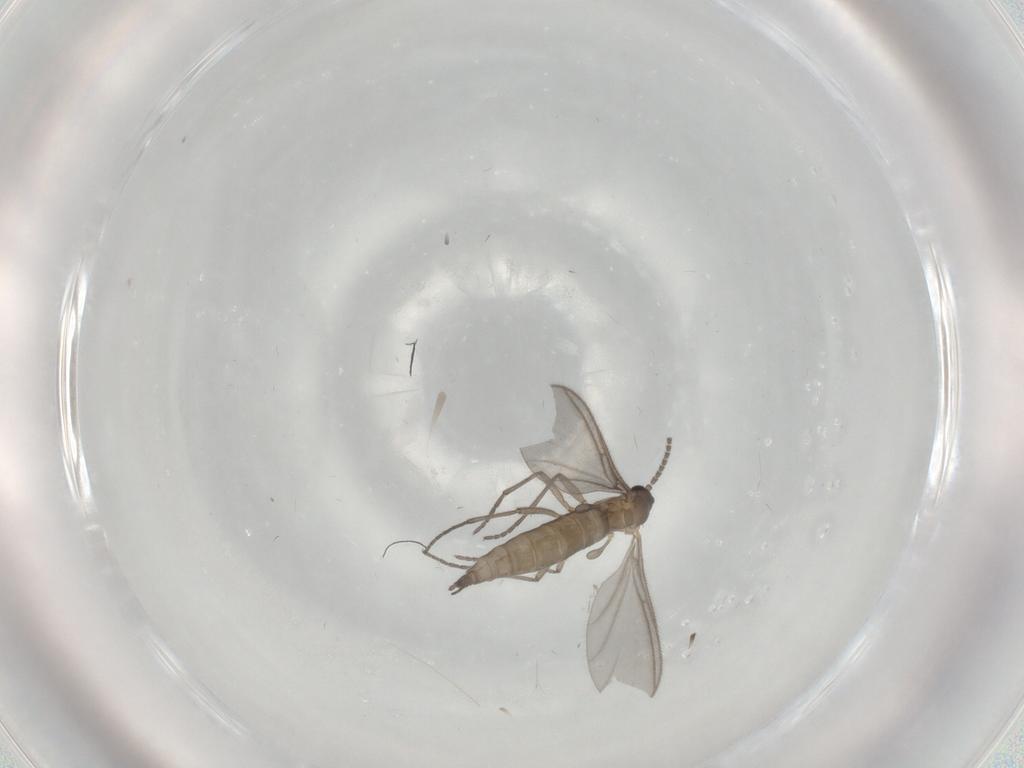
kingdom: Animalia
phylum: Arthropoda
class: Insecta
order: Diptera
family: Sciaridae
